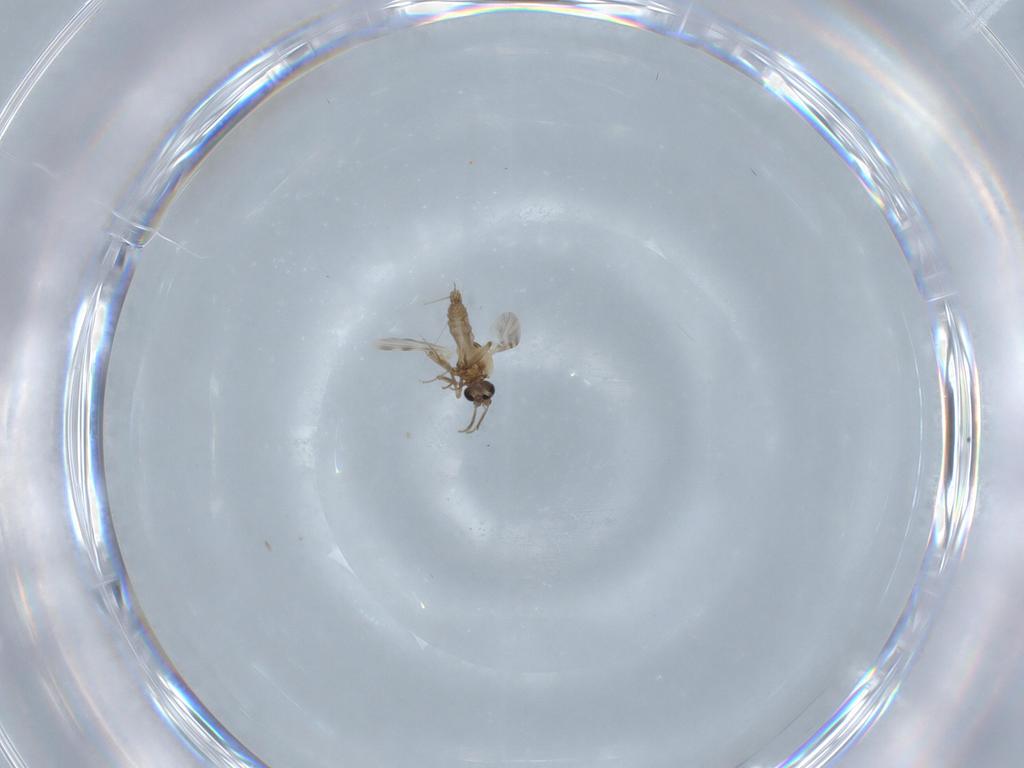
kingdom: Animalia
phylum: Arthropoda
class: Insecta
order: Diptera
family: Ceratopogonidae
